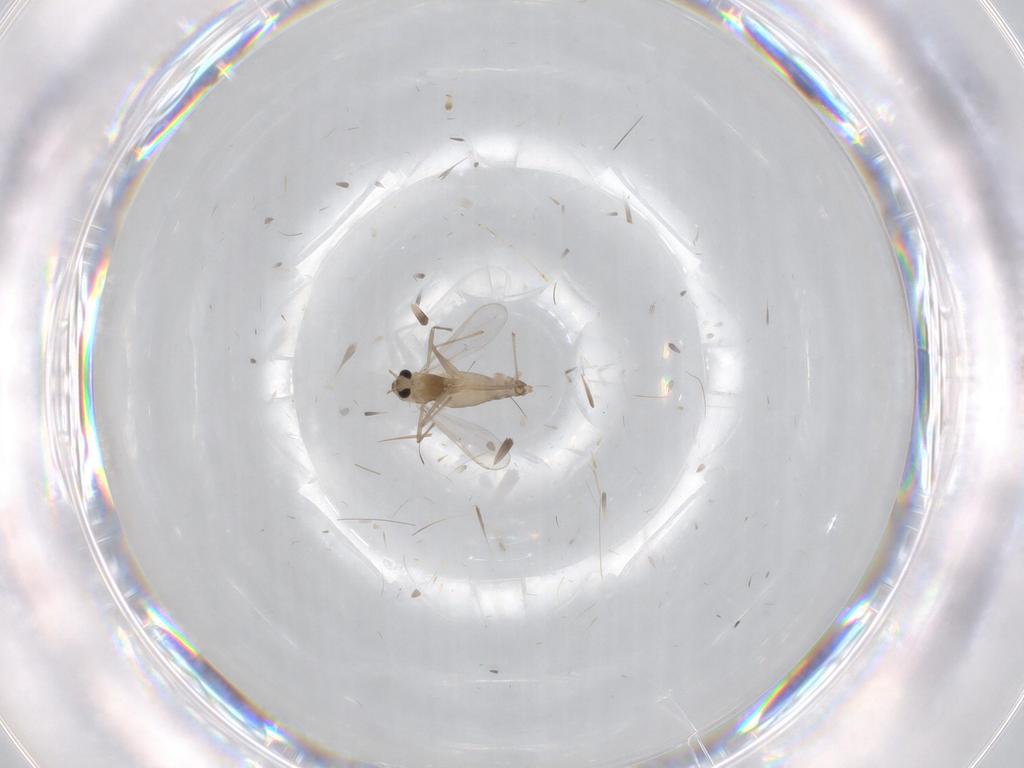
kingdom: Animalia
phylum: Arthropoda
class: Insecta
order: Diptera
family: Chironomidae
